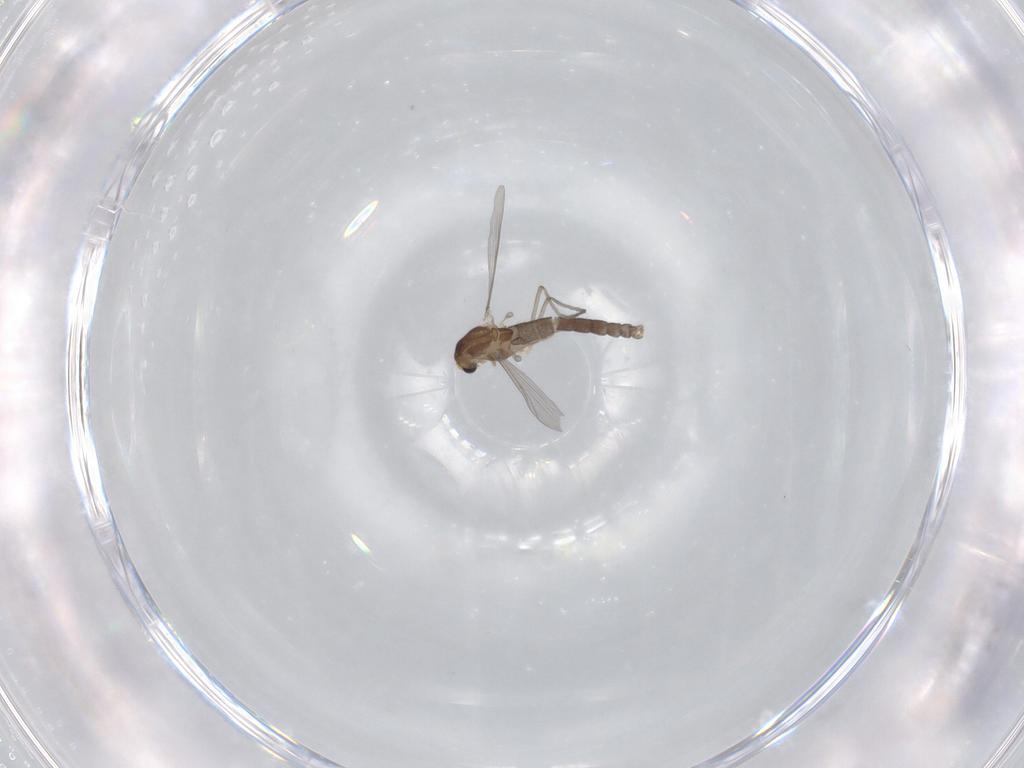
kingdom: Animalia
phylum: Arthropoda
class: Insecta
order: Diptera
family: Chironomidae
